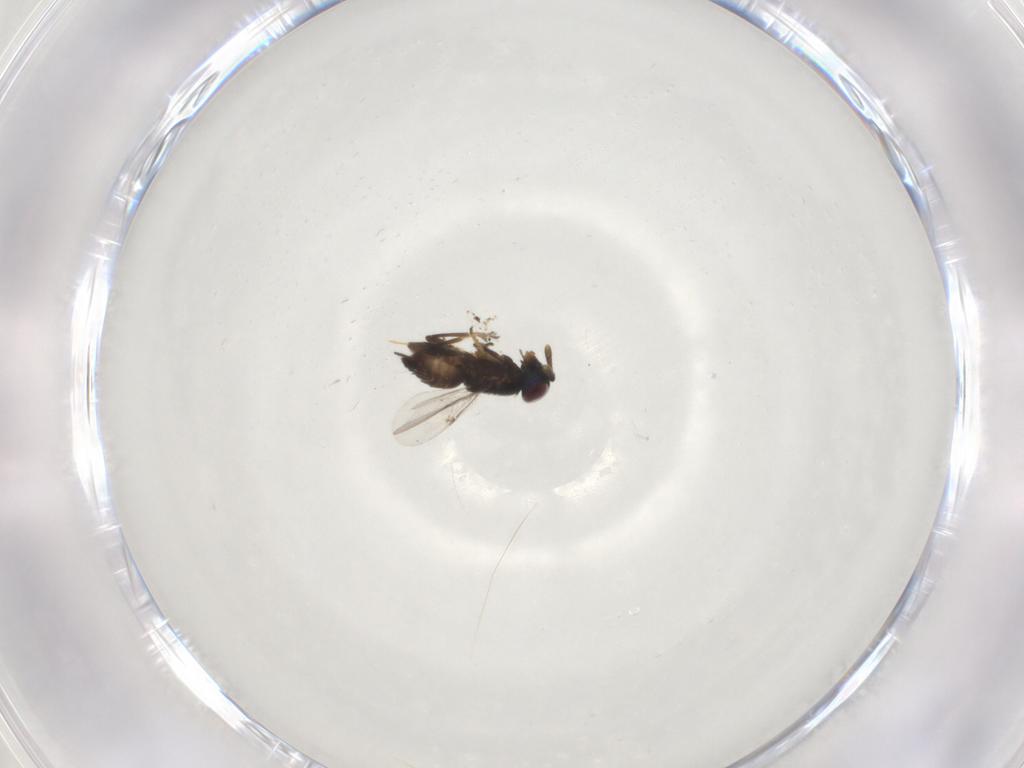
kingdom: Animalia
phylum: Arthropoda
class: Insecta
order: Hymenoptera
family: Encyrtidae
